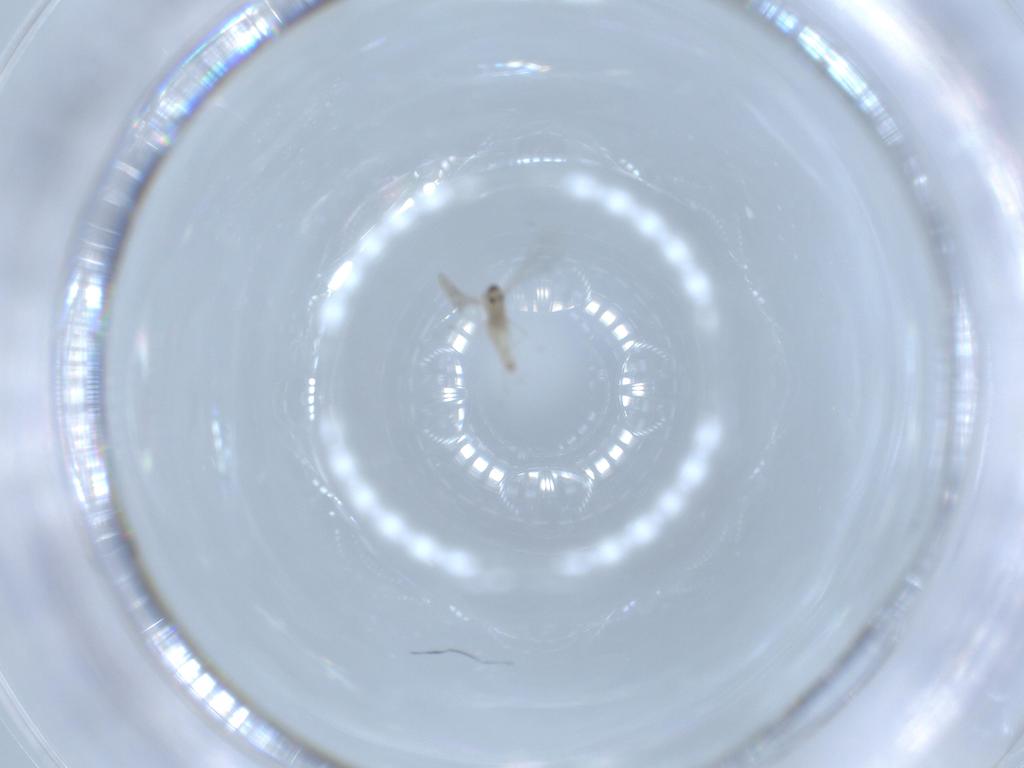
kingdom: Animalia
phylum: Arthropoda
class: Insecta
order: Diptera
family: Cecidomyiidae
